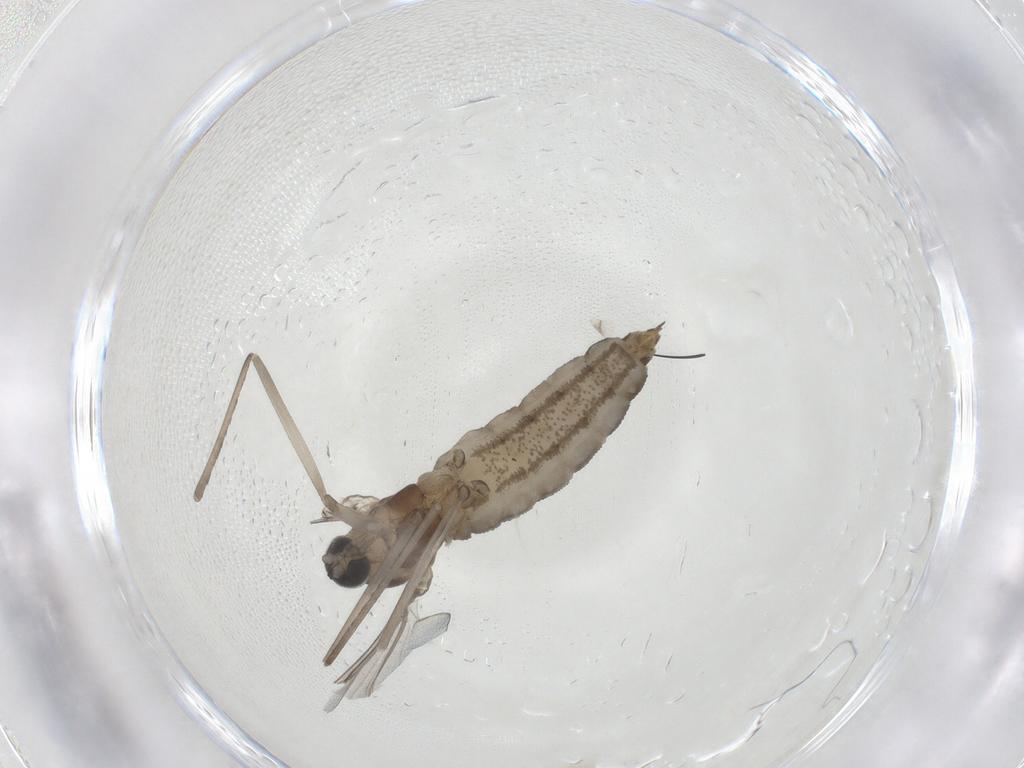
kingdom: Animalia
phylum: Arthropoda
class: Insecta
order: Diptera
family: Cecidomyiidae
